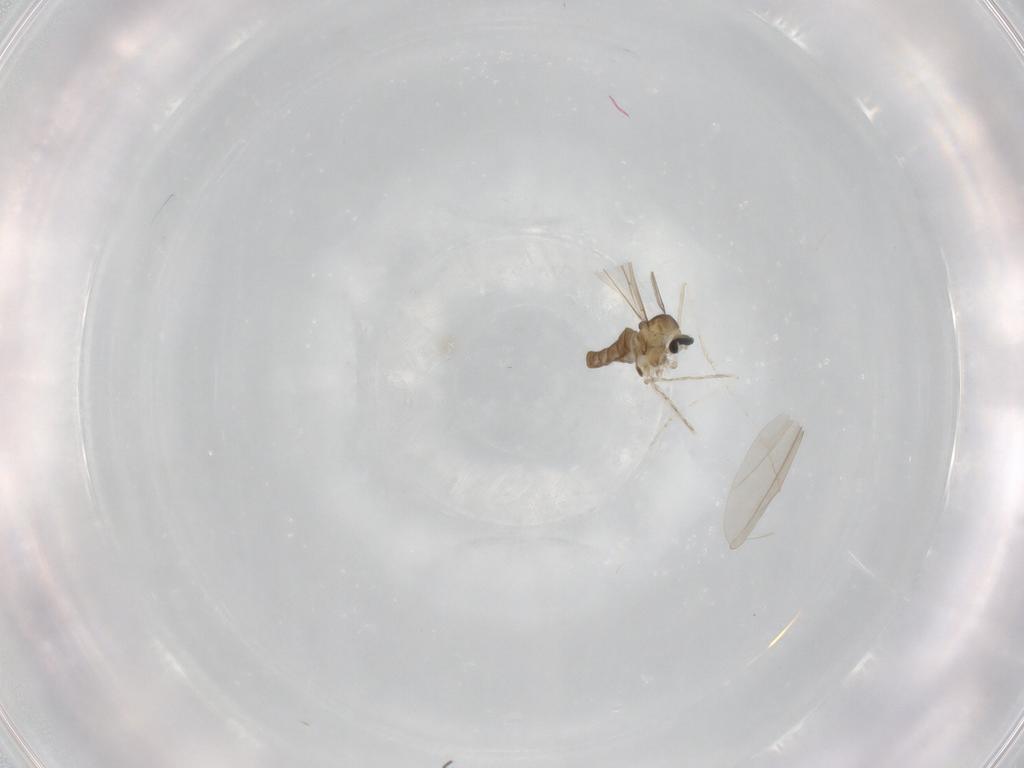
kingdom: Animalia
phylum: Arthropoda
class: Insecta
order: Diptera
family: Cecidomyiidae
